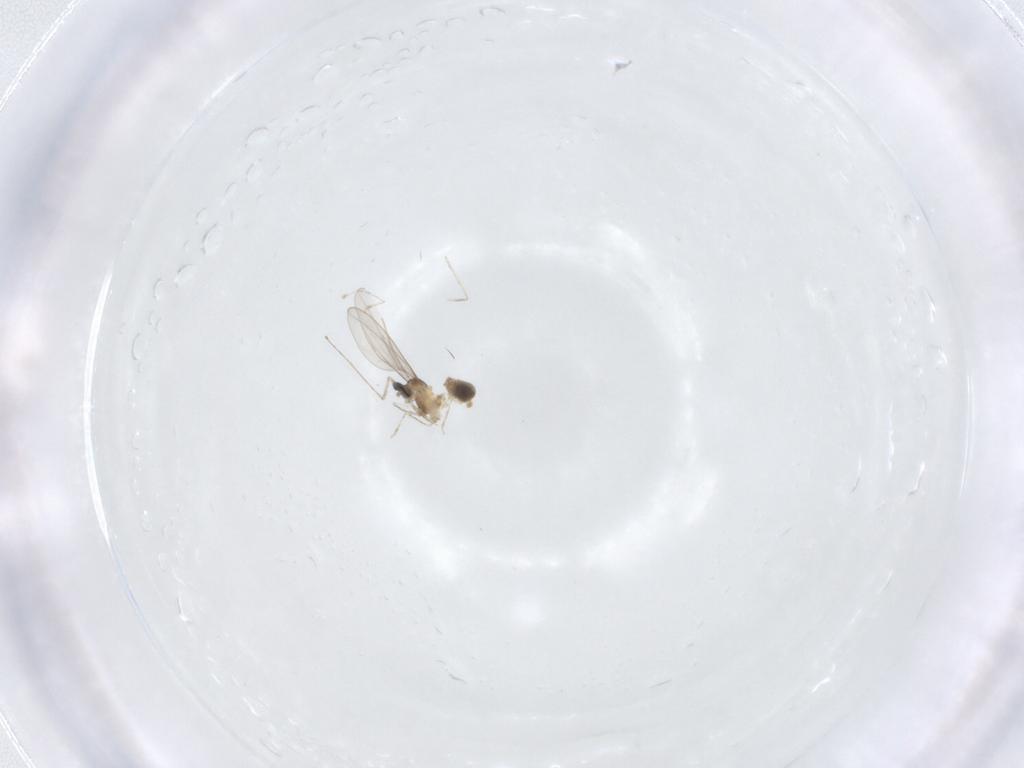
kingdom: Animalia
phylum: Arthropoda
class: Insecta
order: Diptera
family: Cecidomyiidae
